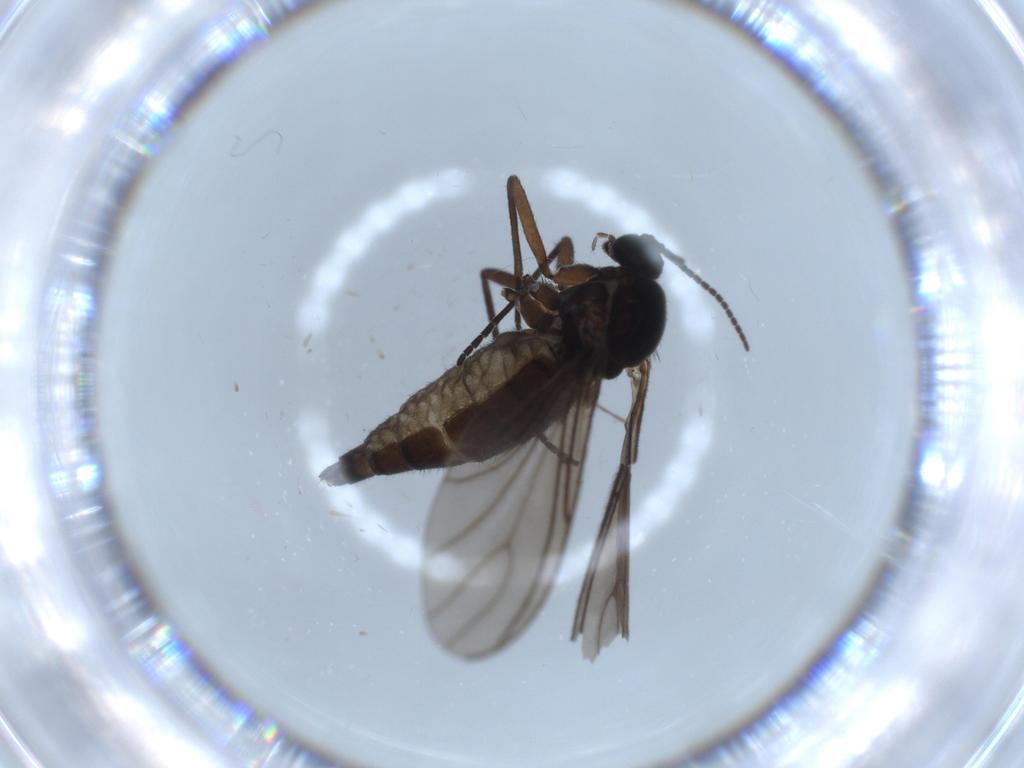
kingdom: Animalia
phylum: Arthropoda
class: Insecta
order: Diptera
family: Sciaridae
